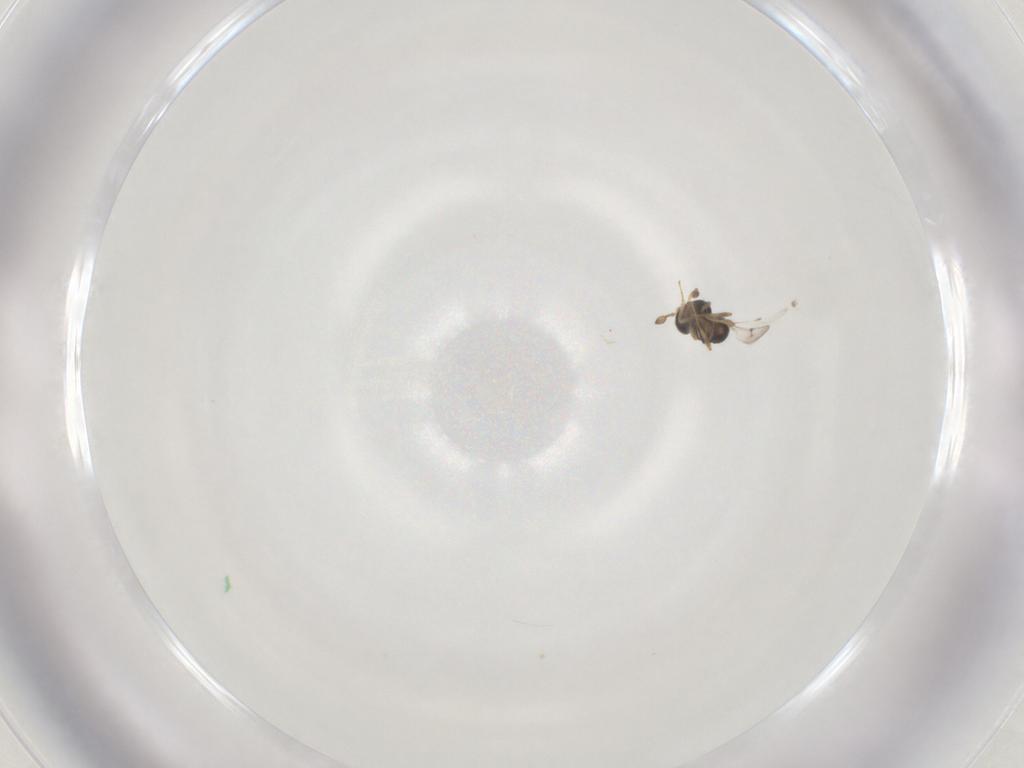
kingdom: Animalia
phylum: Arthropoda
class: Insecta
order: Hymenoptera
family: Scelionidae
